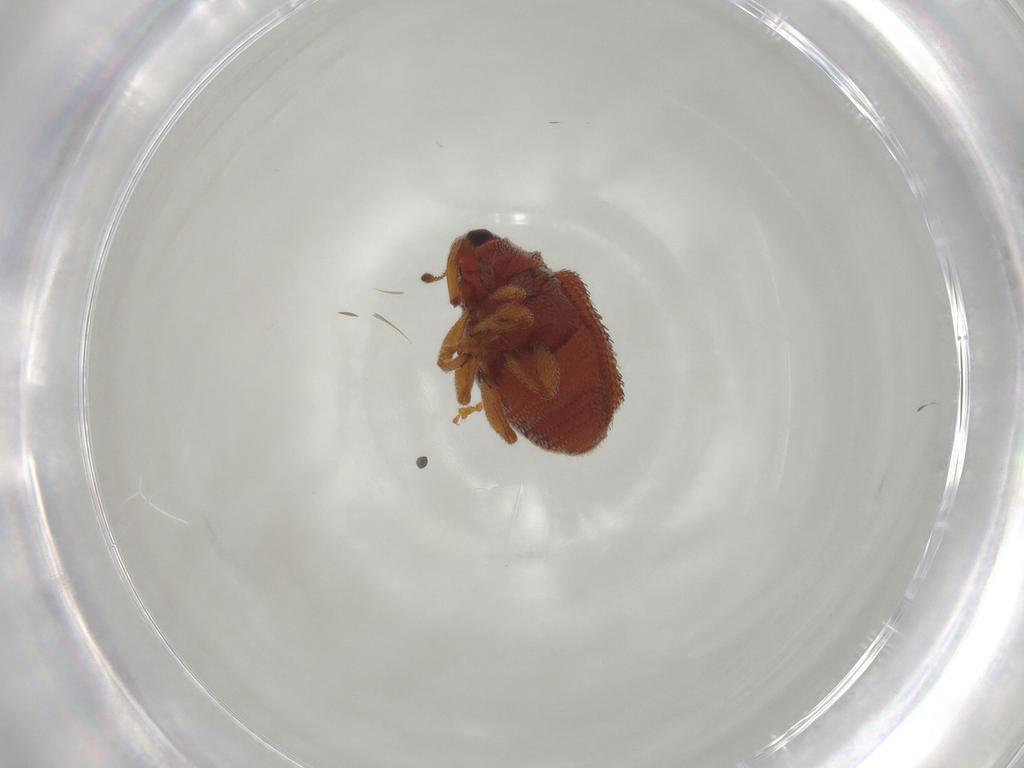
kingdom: Animalia
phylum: Arthropoda
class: Insecta
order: Coleoptera
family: Curculionidae
